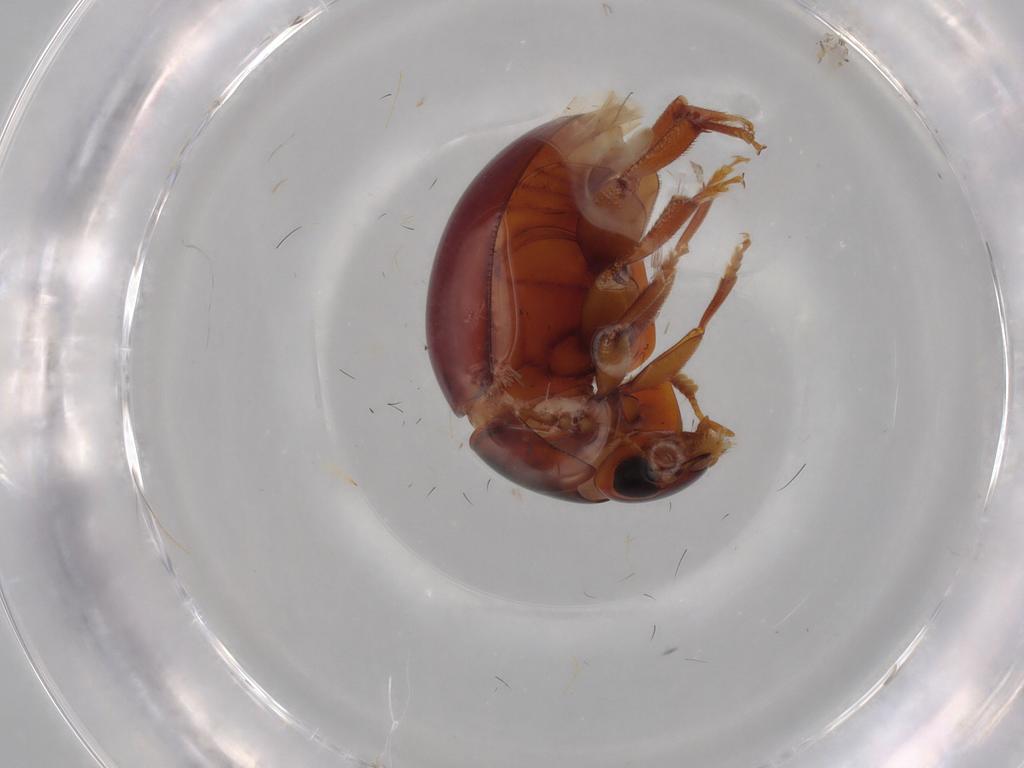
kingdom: Animalia
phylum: Arthropoda
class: Insecta
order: Coleoptera
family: Phalacridae
